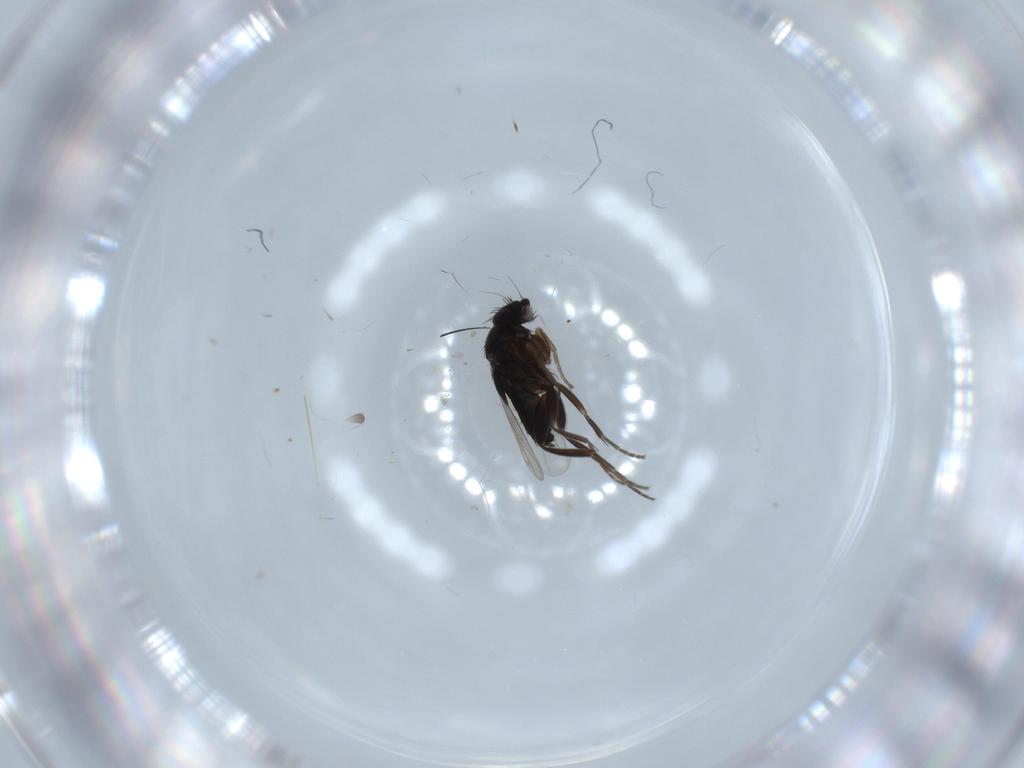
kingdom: Animalia
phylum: Arthropoda
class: Insecta
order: Diptera
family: Phoridae
